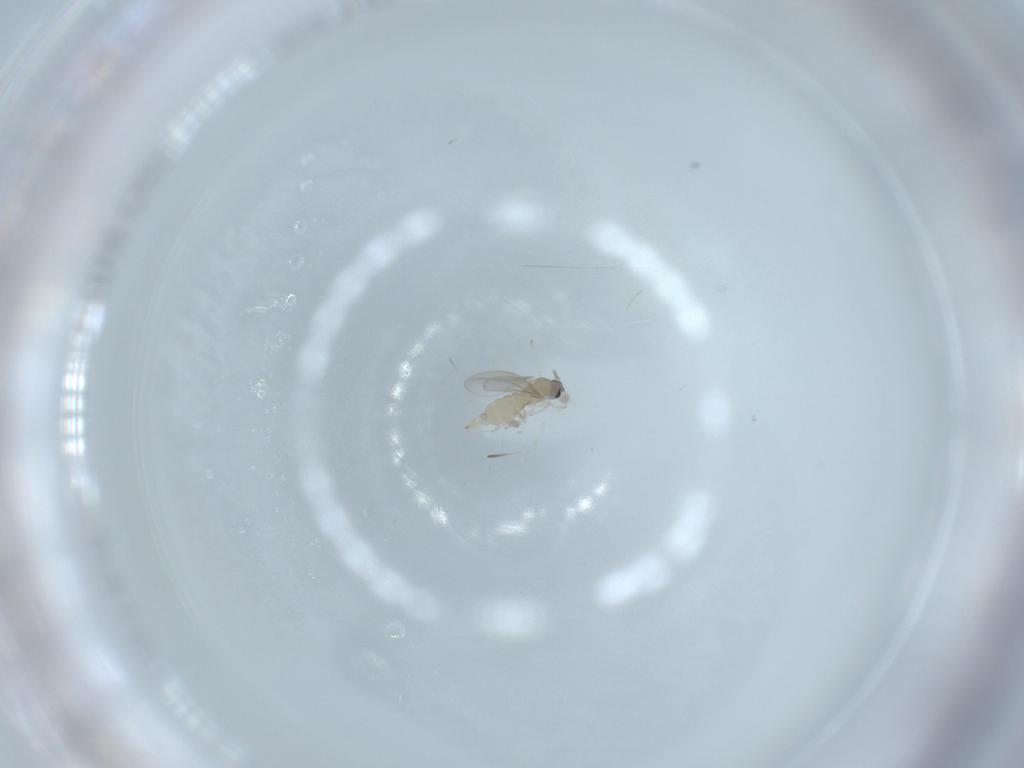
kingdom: Animalia
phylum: Arthropoda
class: Insecta
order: Diptera
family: Cecidomyiidae
